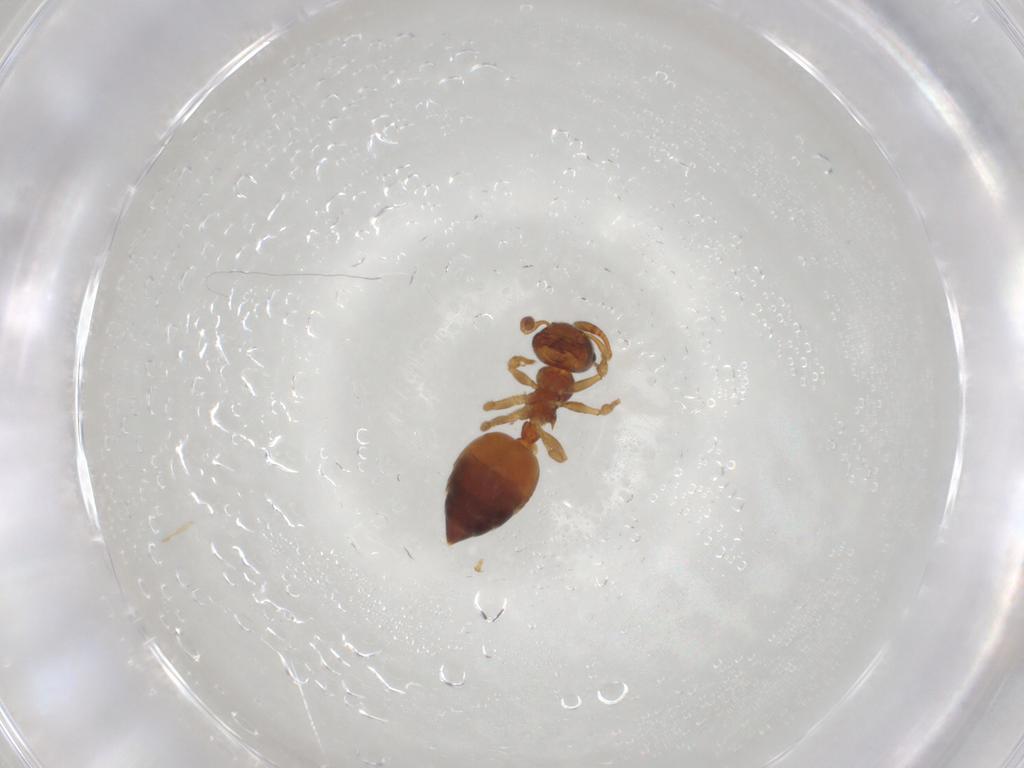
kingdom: Animalia
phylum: Arthropoda
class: Insecta
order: Hymenoptera
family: Formicidae
